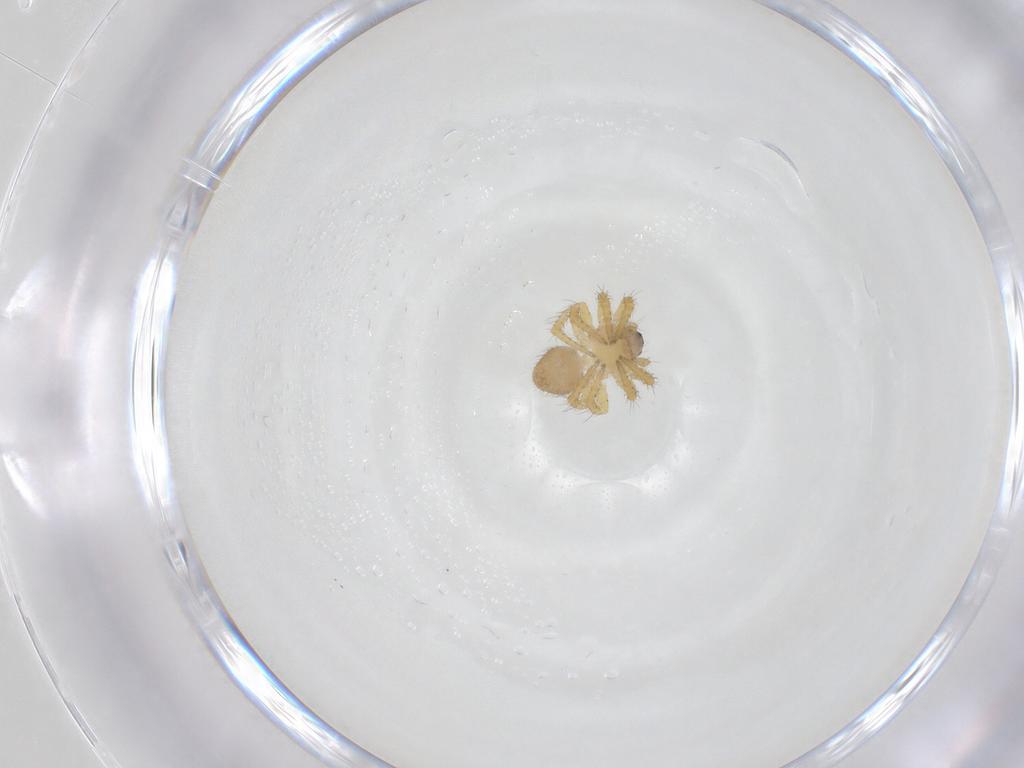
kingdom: Animalia
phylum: Arthropoda
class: Arachnida
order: Araneae
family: Theridiidae
